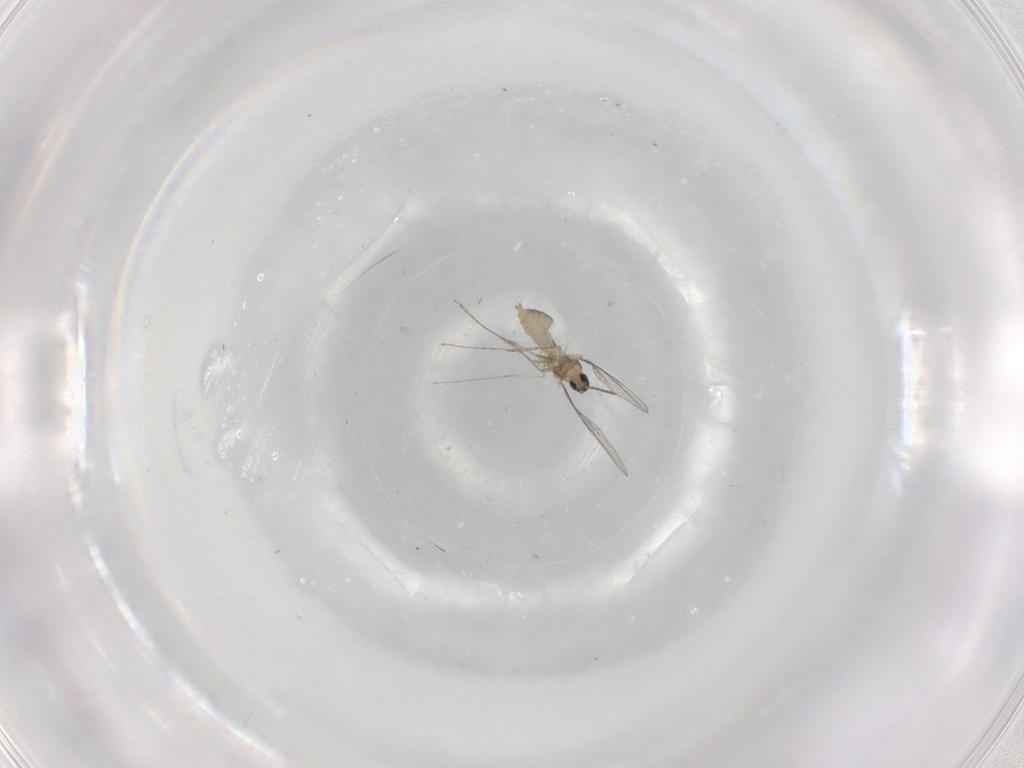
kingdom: Animalia
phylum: Arthropoda
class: Insecta
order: Diptera
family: Cecidomyiidae
